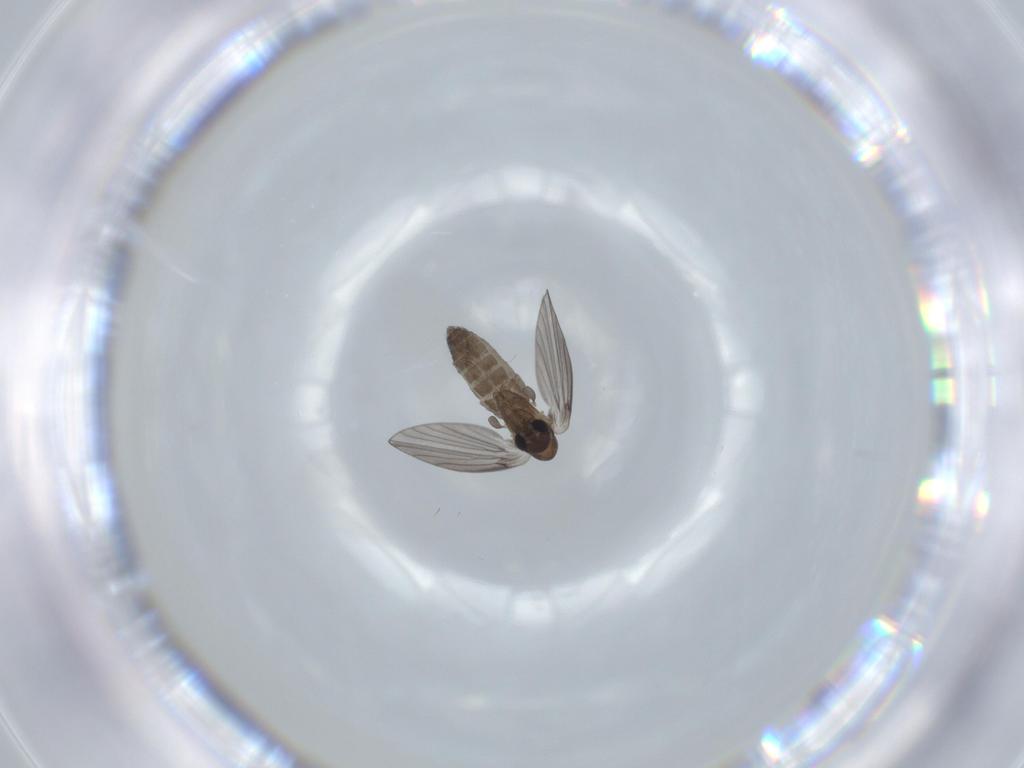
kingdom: Animalia
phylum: Arthropoda
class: Insecta
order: Diptera
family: Psychodidae
